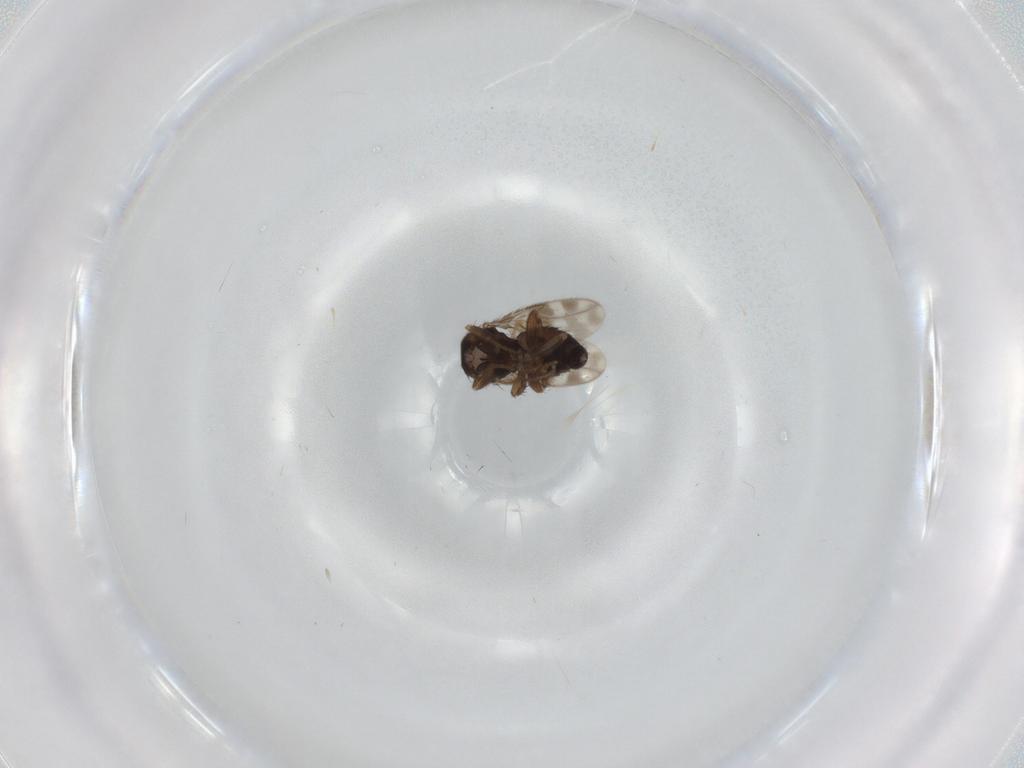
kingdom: Animalia
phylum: Arthropoda
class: Insecta
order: Diptera
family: Sphaeroceridae
